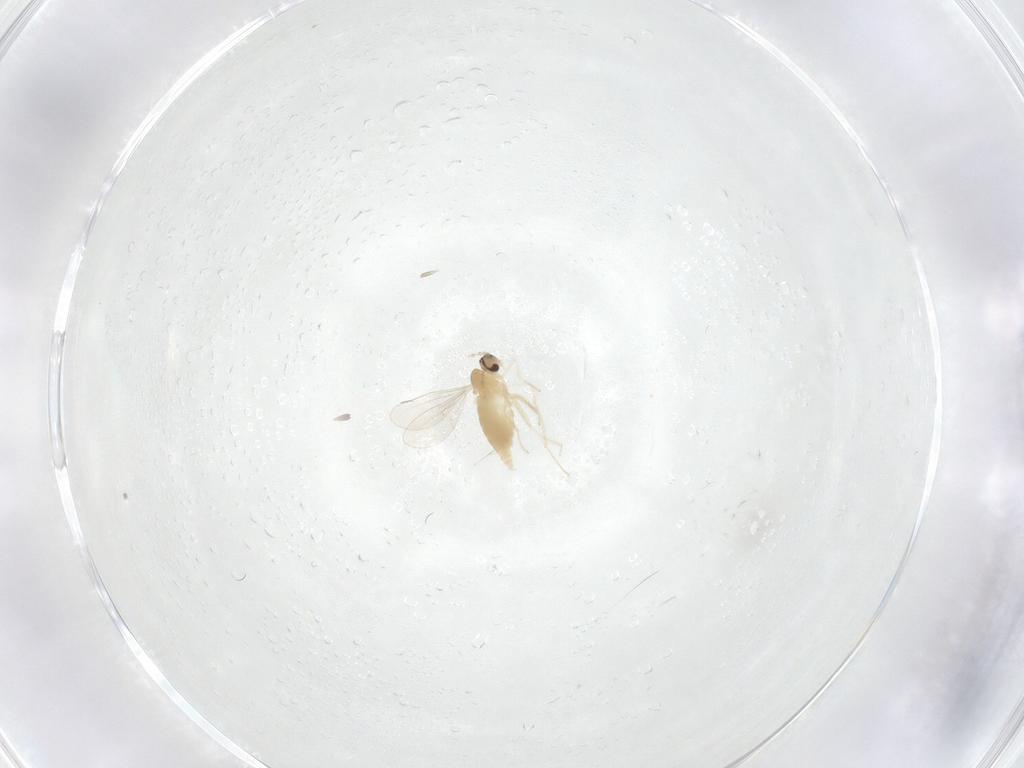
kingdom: Animalia
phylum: Arthropoda
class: Insecta
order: Diptera
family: Cecidomyiidae
